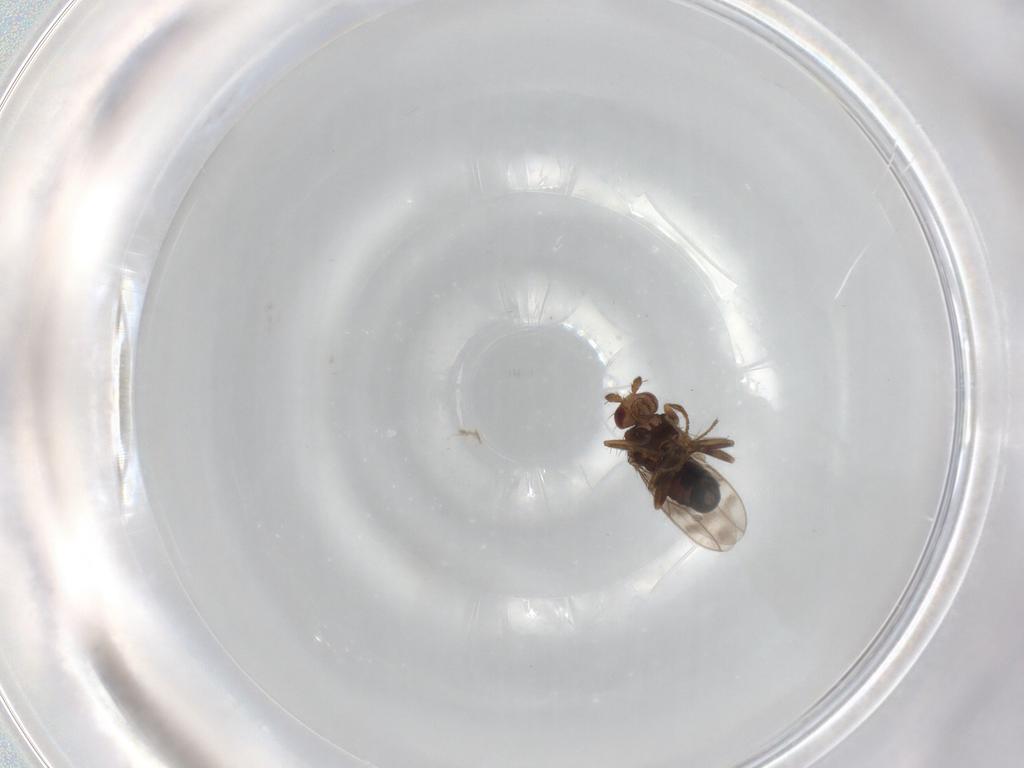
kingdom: Animalia
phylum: Arthropoda
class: Insecta
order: Diptera
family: Sphaeroceridae
